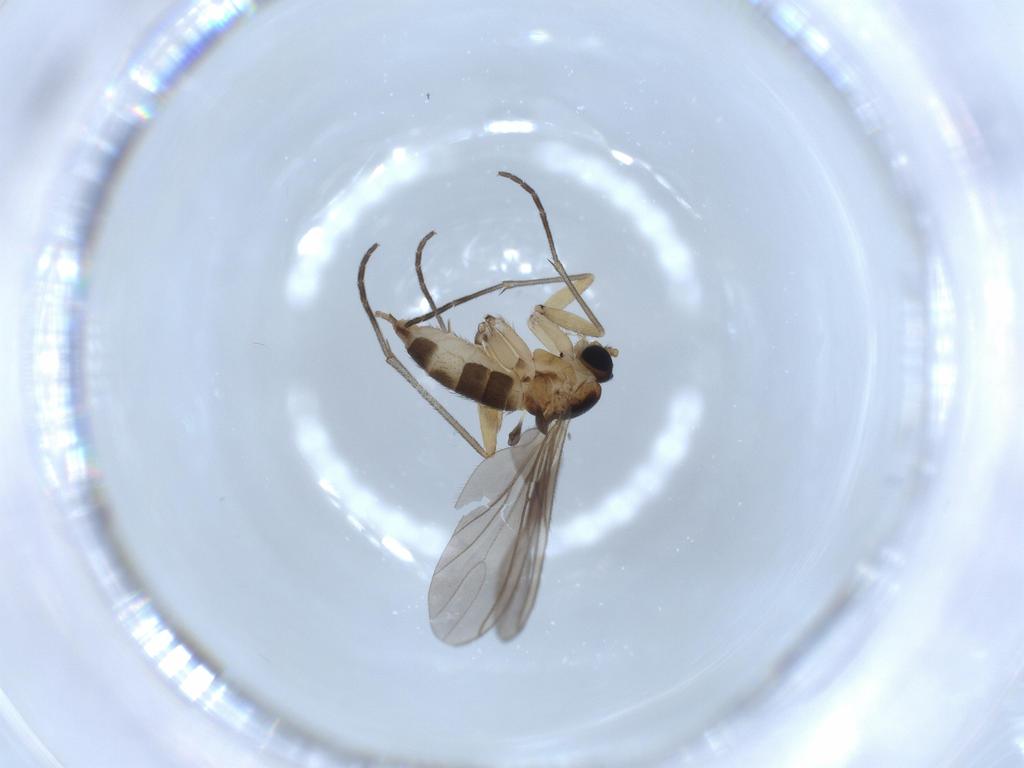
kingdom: Animalia
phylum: Arthropoda
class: Insecta
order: Diptera
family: Sciaridae
